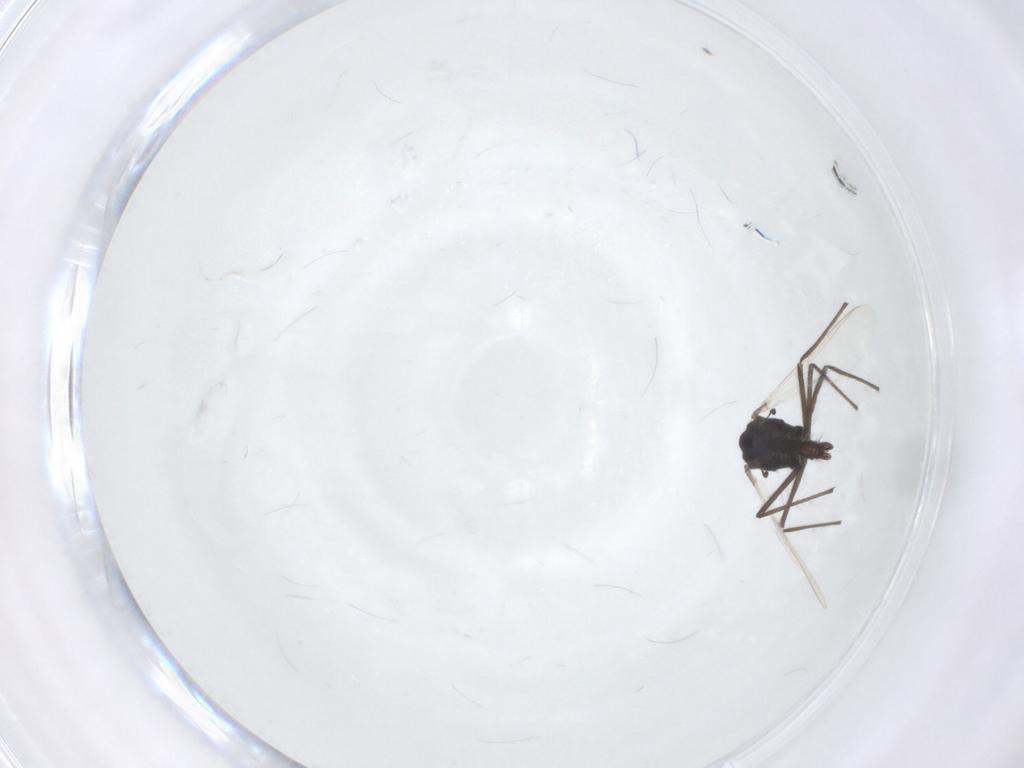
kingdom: Animalia
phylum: Arthropoda
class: Insecta
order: Diptera
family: Chironomidae
